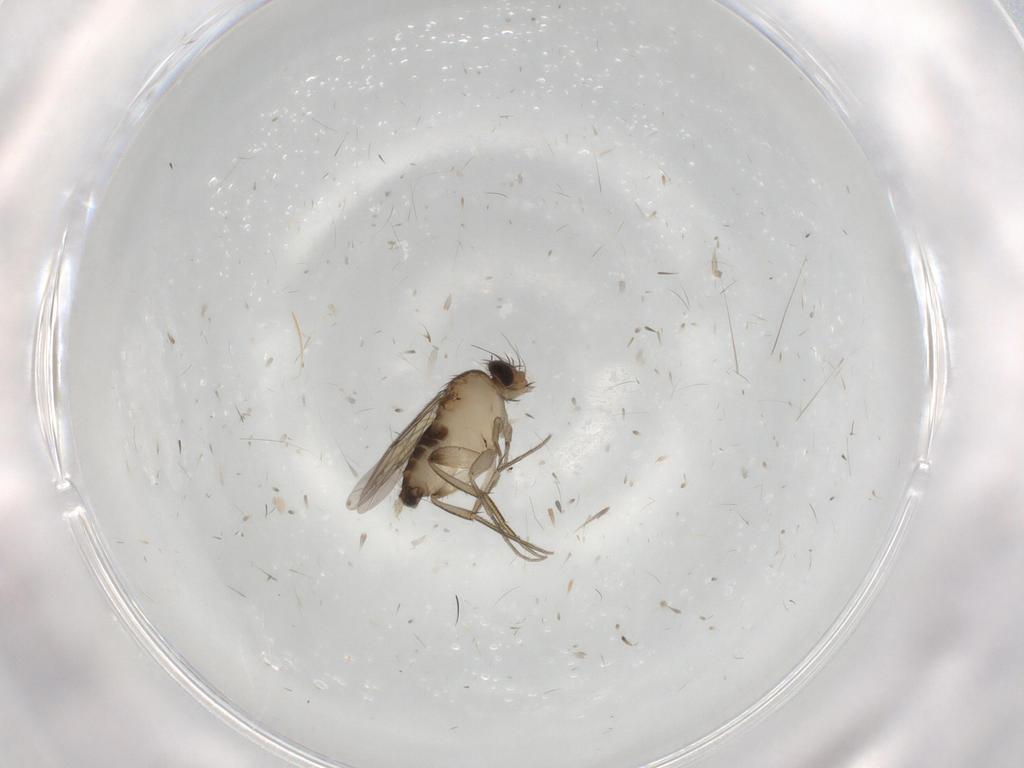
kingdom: Animalia
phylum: Arthropoda
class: Insecta
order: Diptera
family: Phoridae
